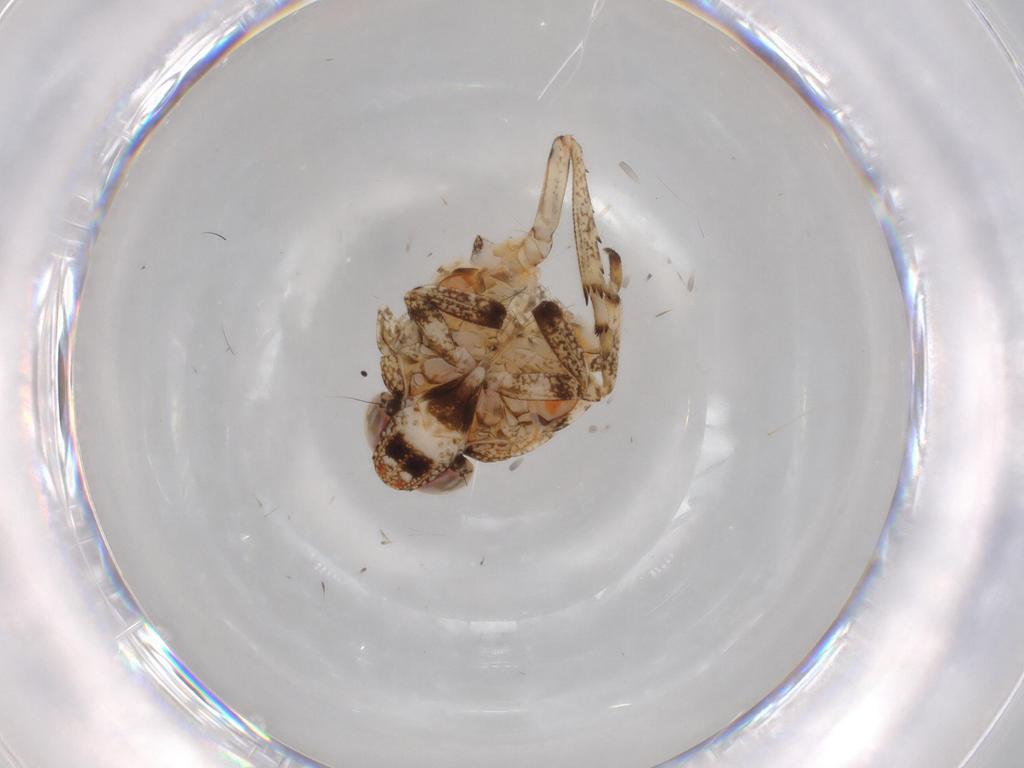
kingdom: Animalia
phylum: Arthropoda
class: Insecta
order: Hemiptera
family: Issidae
